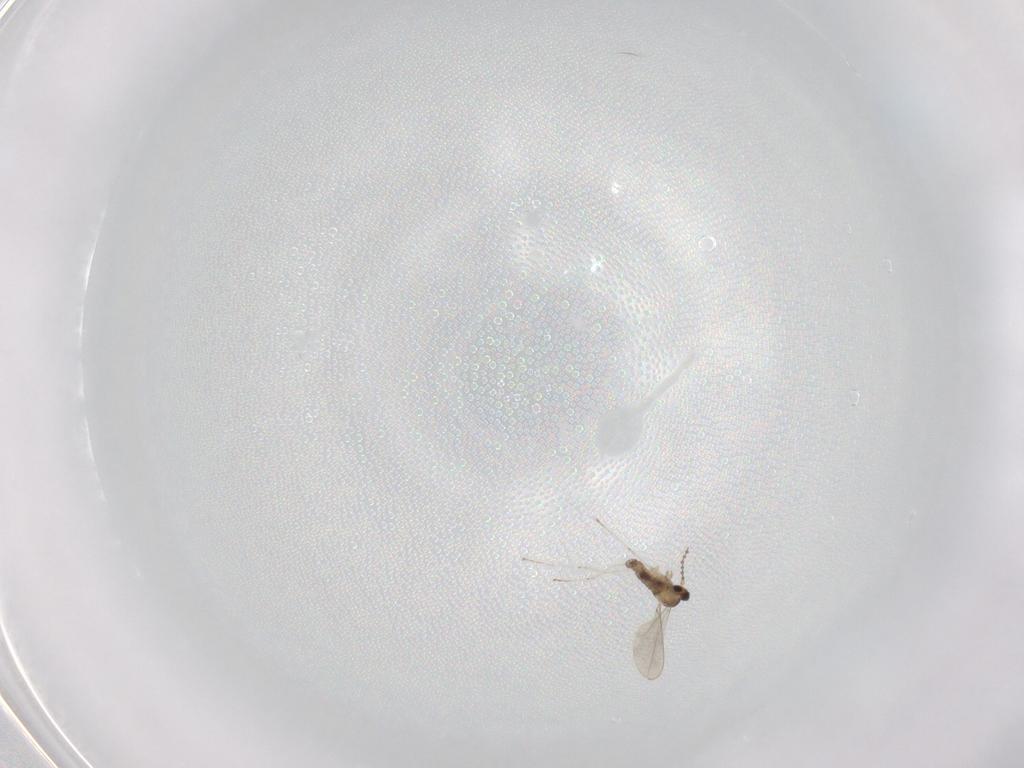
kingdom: Animalia
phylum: Arthropoda
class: Insecta
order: Diptera
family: Cecidomyiidae
